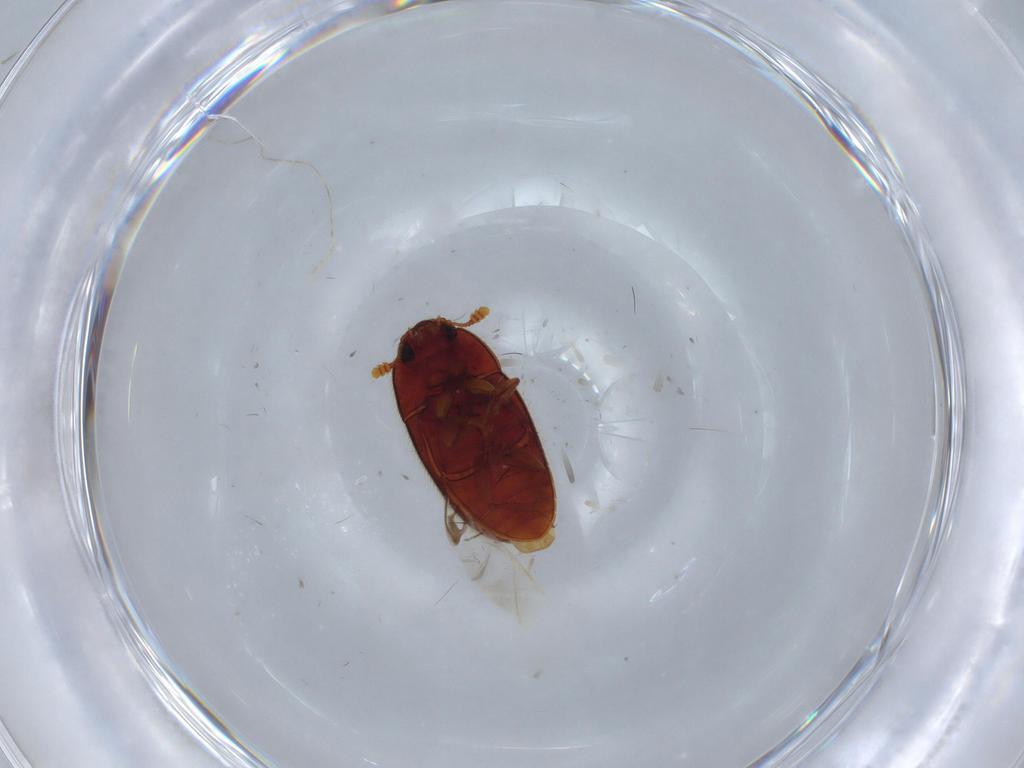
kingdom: Animalia
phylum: Arthropoda
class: Insecta
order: Coleoptera
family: Biphyllidae
